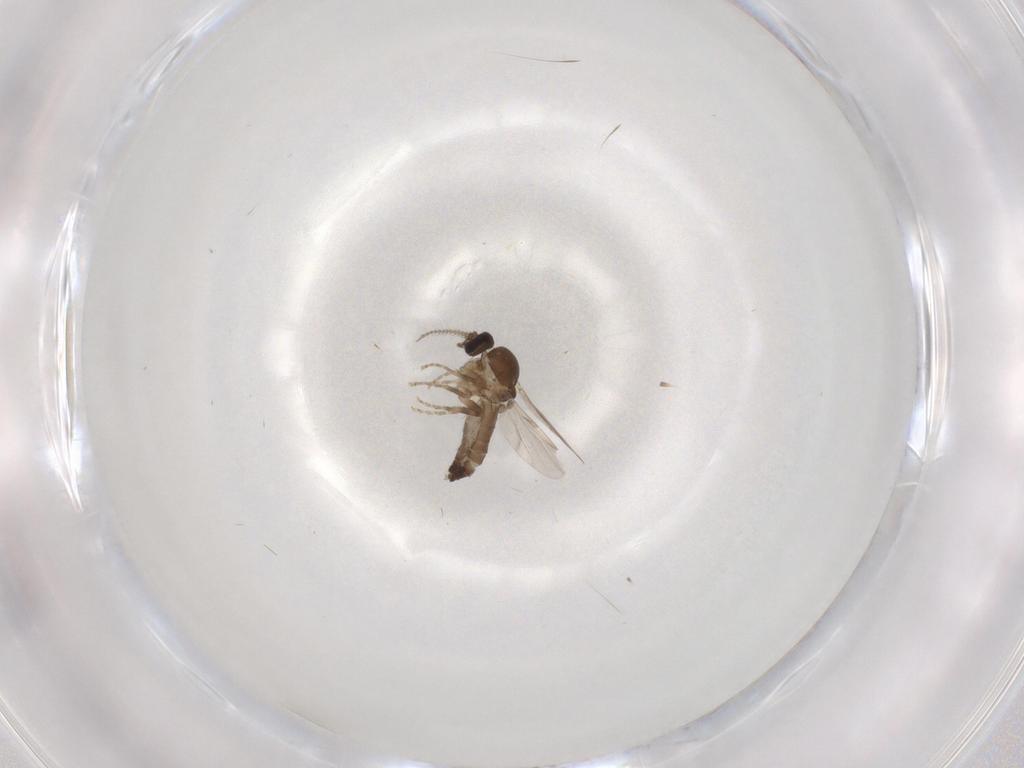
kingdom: Animalia
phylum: Arthropoda
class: Insecta
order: Diptera
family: Ceratopogonidae
